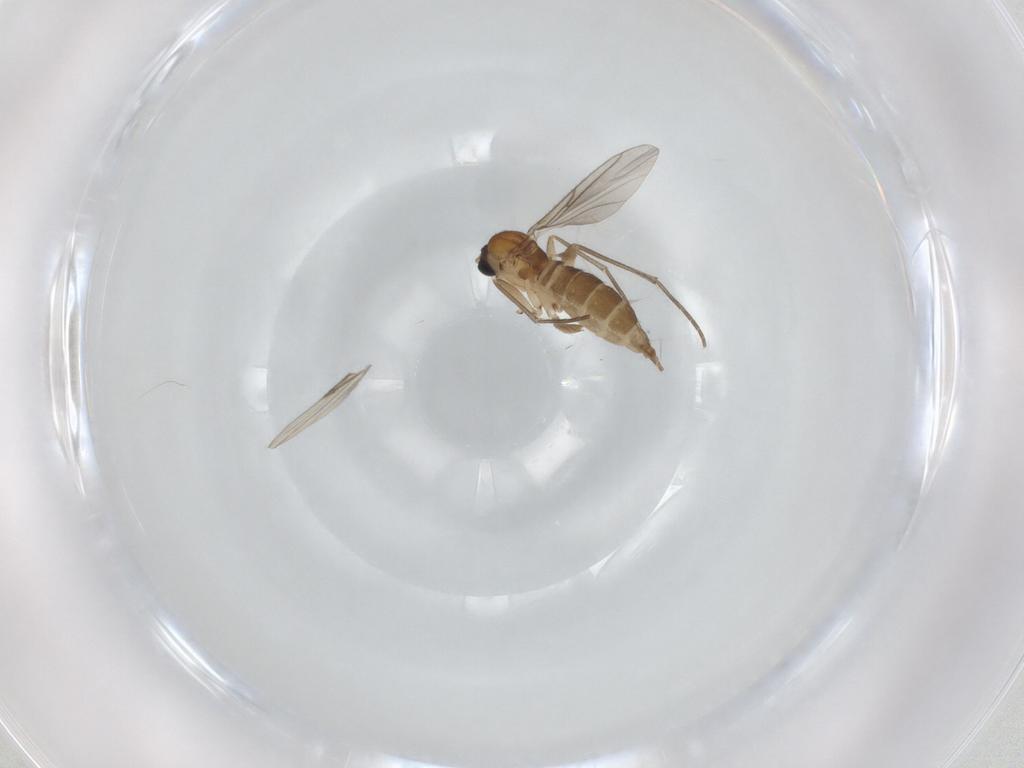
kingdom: Animalia
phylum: Arthropoda
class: Insecta
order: Diptera
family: Sciaridae
